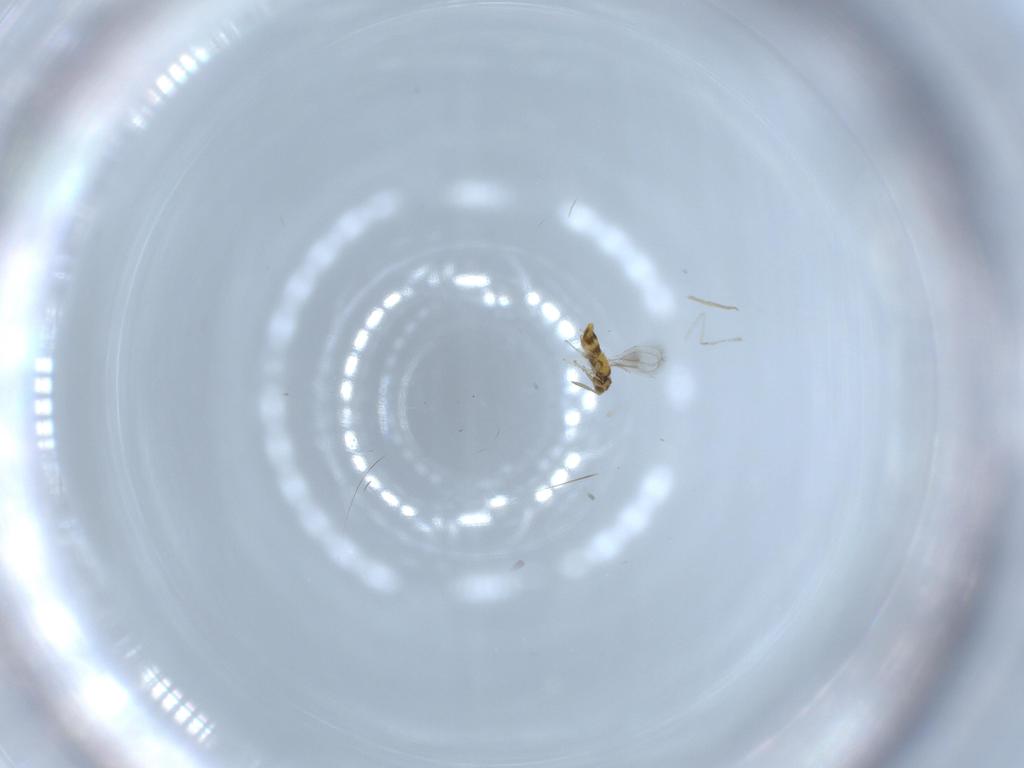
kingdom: Animalia
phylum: Arthropoda
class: Insecta
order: Hymenoptera
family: Aphelinidae
